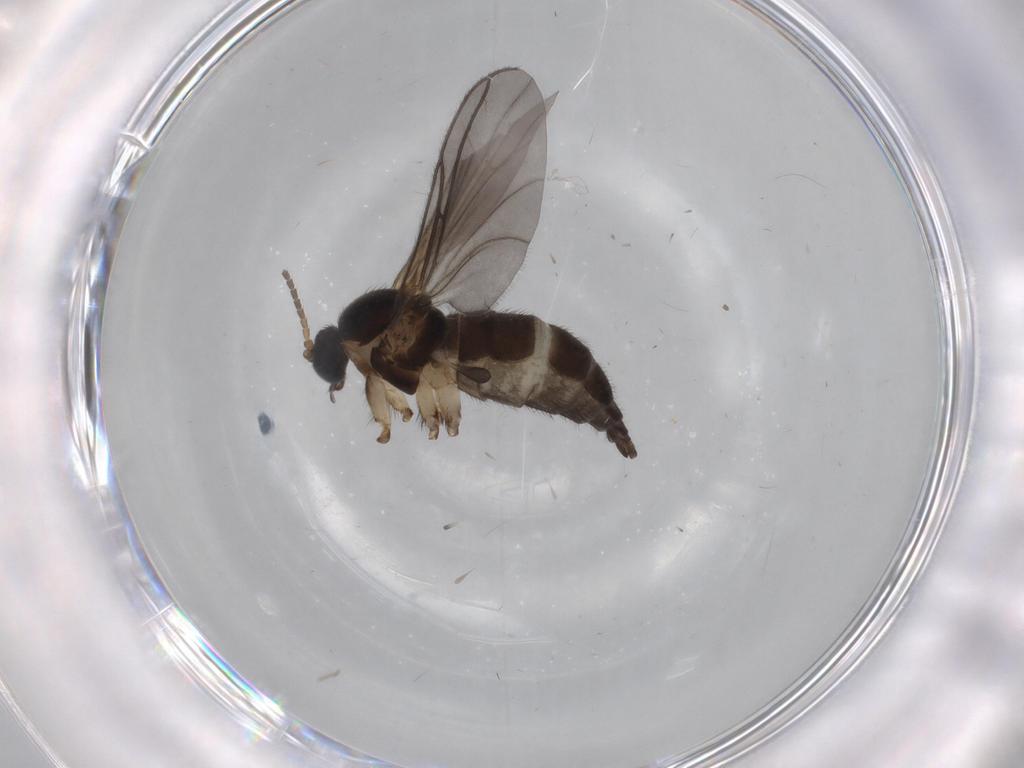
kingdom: Animalia
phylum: Arthropoda
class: Insecta
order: Diptera
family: Sciaridae
